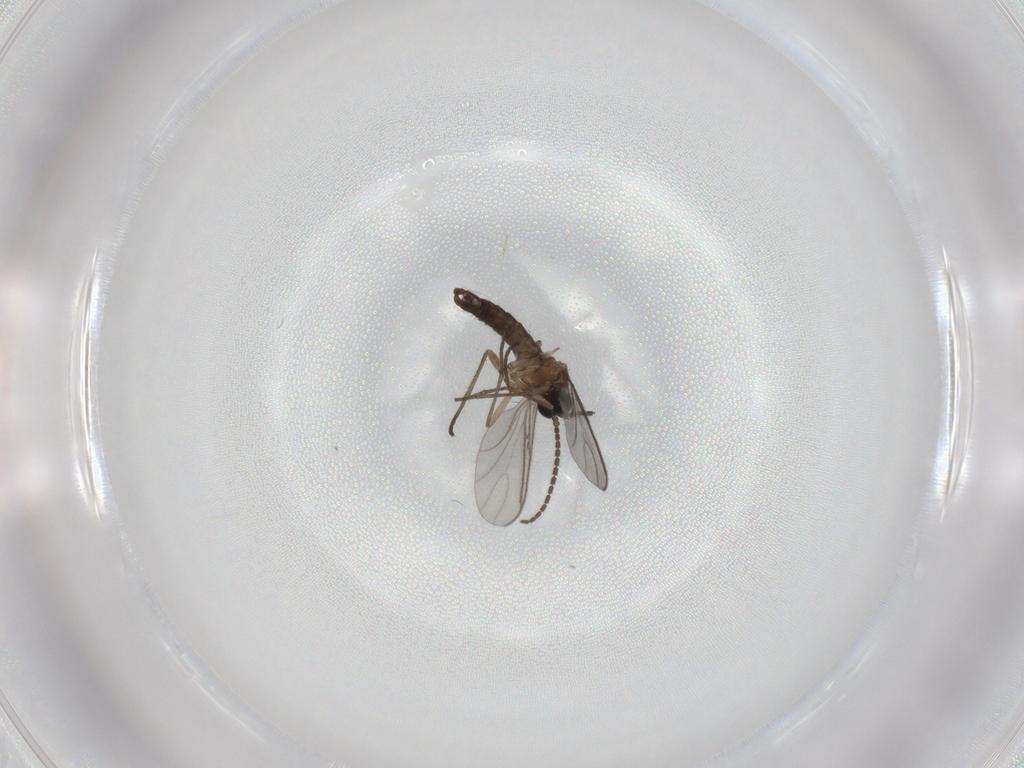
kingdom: Animalia
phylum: Arthropoda
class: Insecta
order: Diptera
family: Sciaridae
